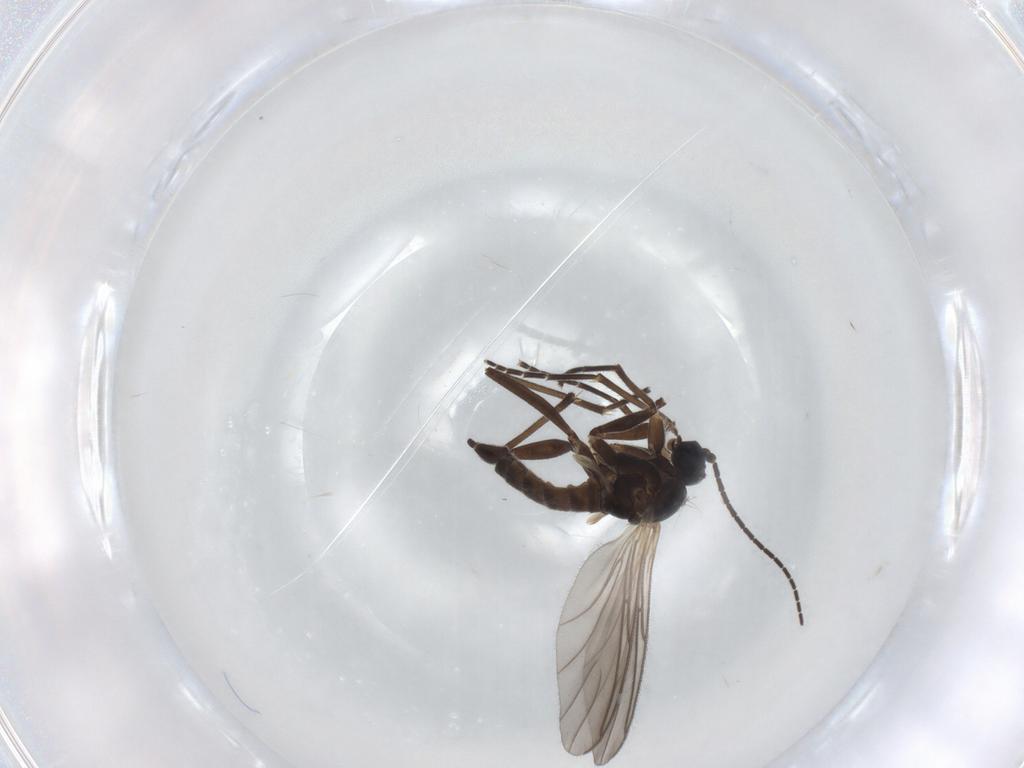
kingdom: Animalia
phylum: Arthropoda
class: Insecta
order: Diptera
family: Sciaridae
